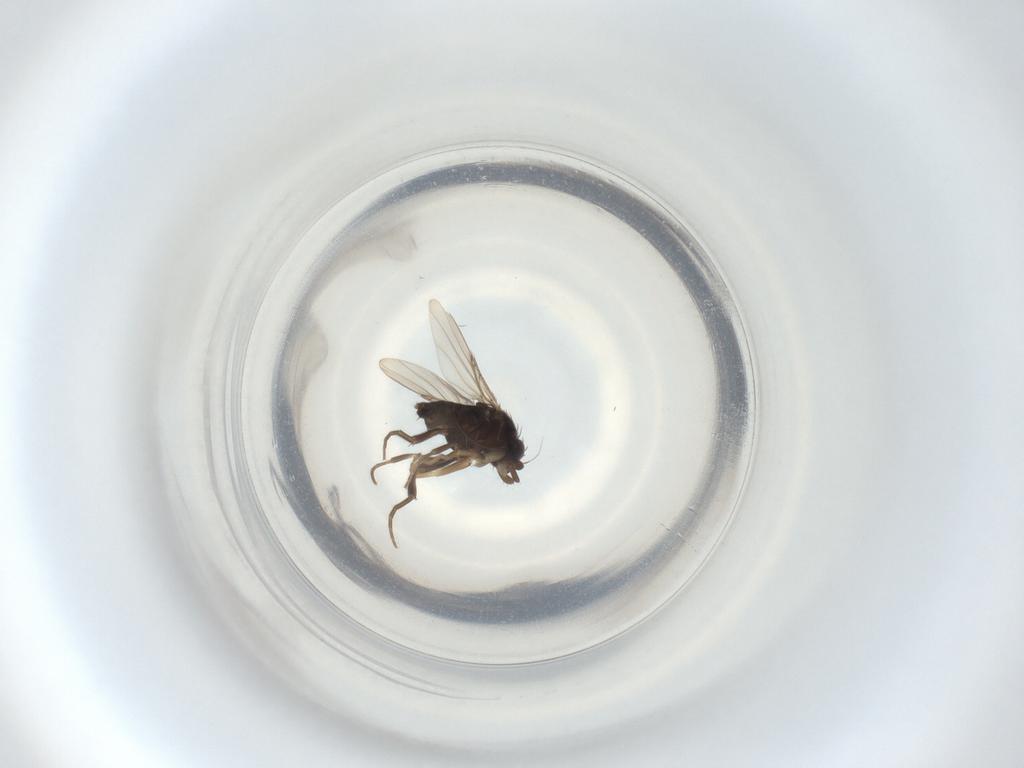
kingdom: Animalia
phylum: Arthropoda
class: Insecta
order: Diptera
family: Phoridae
